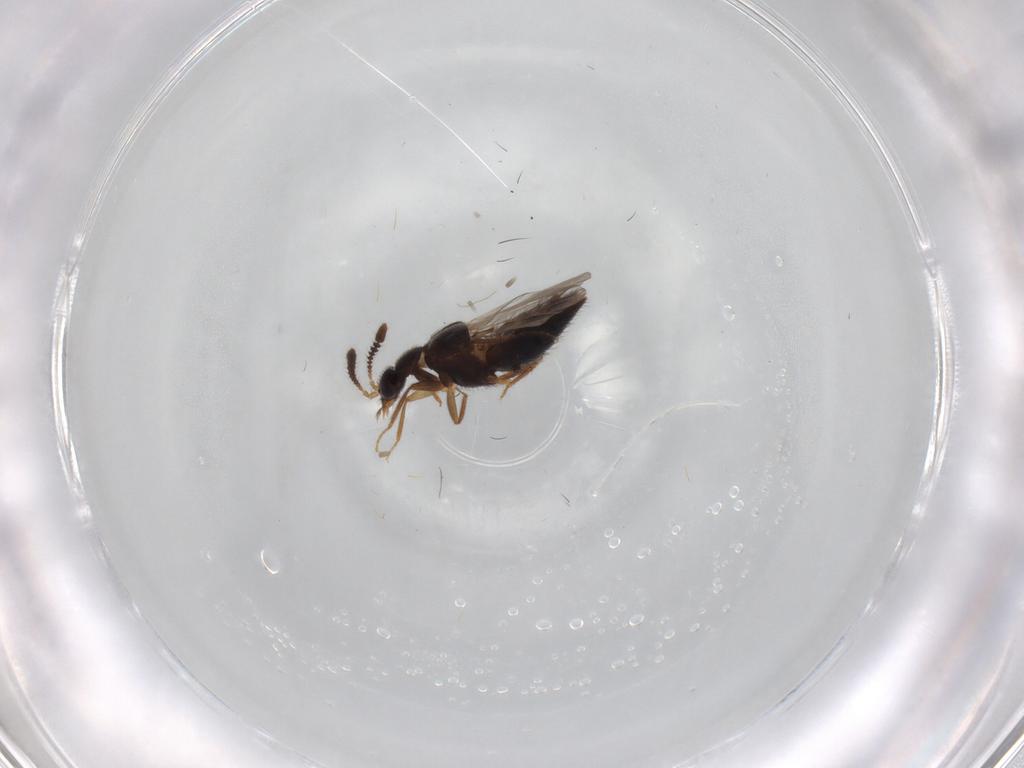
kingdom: Animalia
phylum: Arthropoda
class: Insecta
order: Coleoptera
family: Staphylinidae
